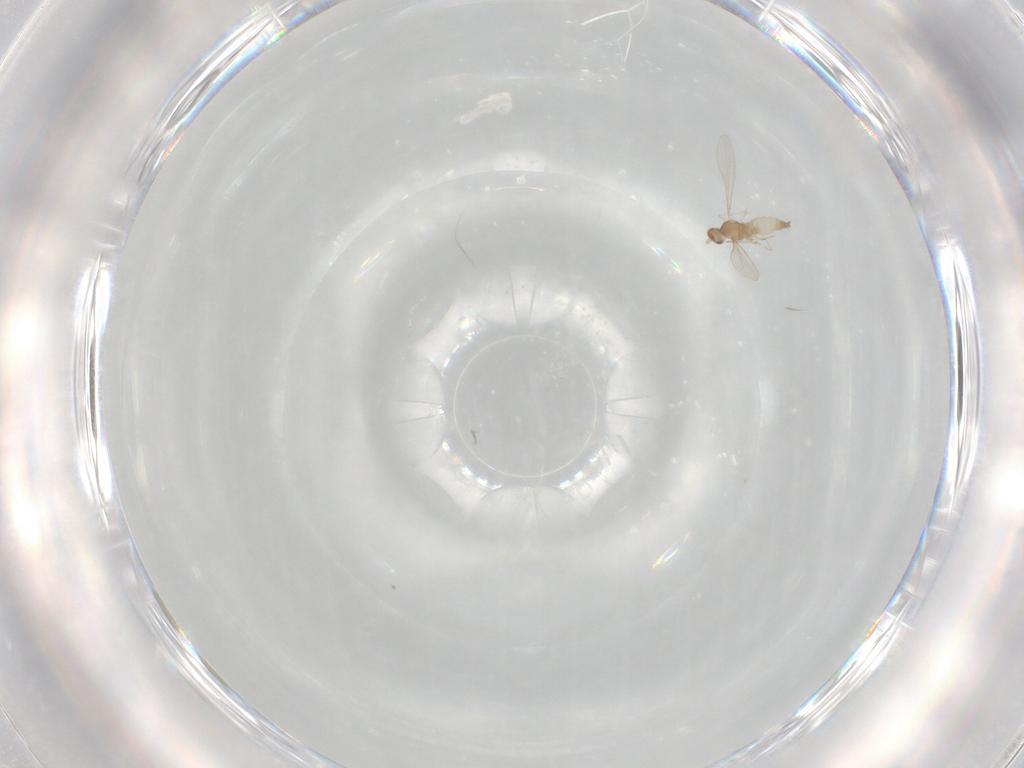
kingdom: Animalia
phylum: Arthropoda
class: Insecta
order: Diptera
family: Cecidomyiidae
